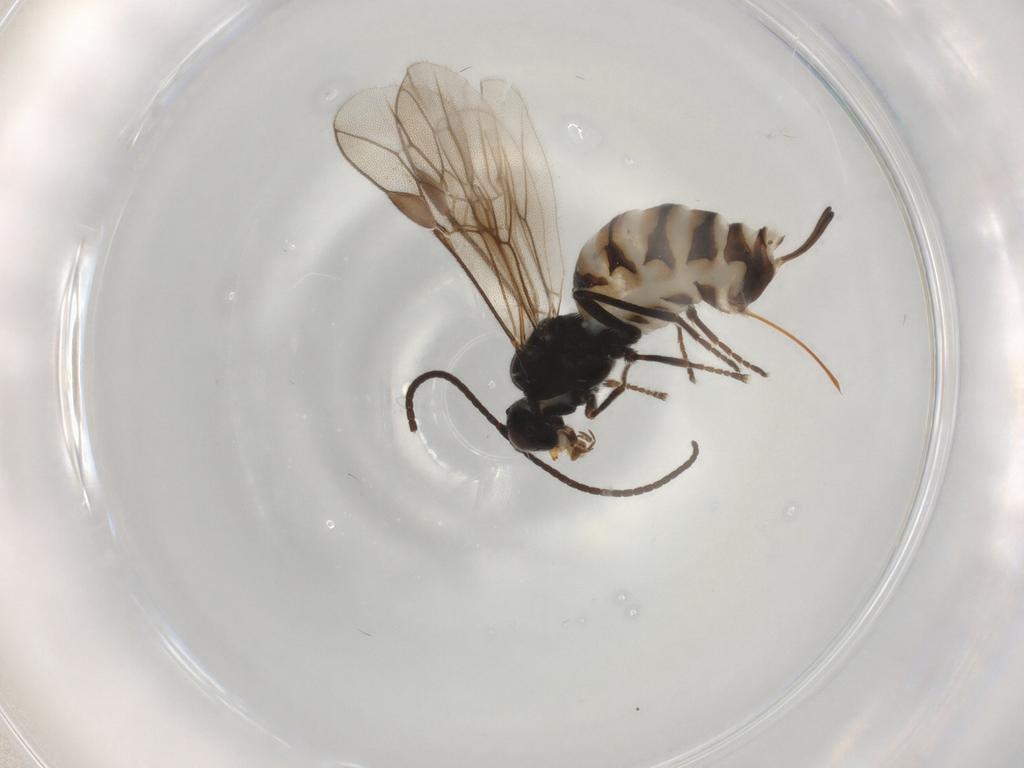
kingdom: Animalia
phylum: Arthropoda
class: Insecta
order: Hymenoptera
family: Braconidae
